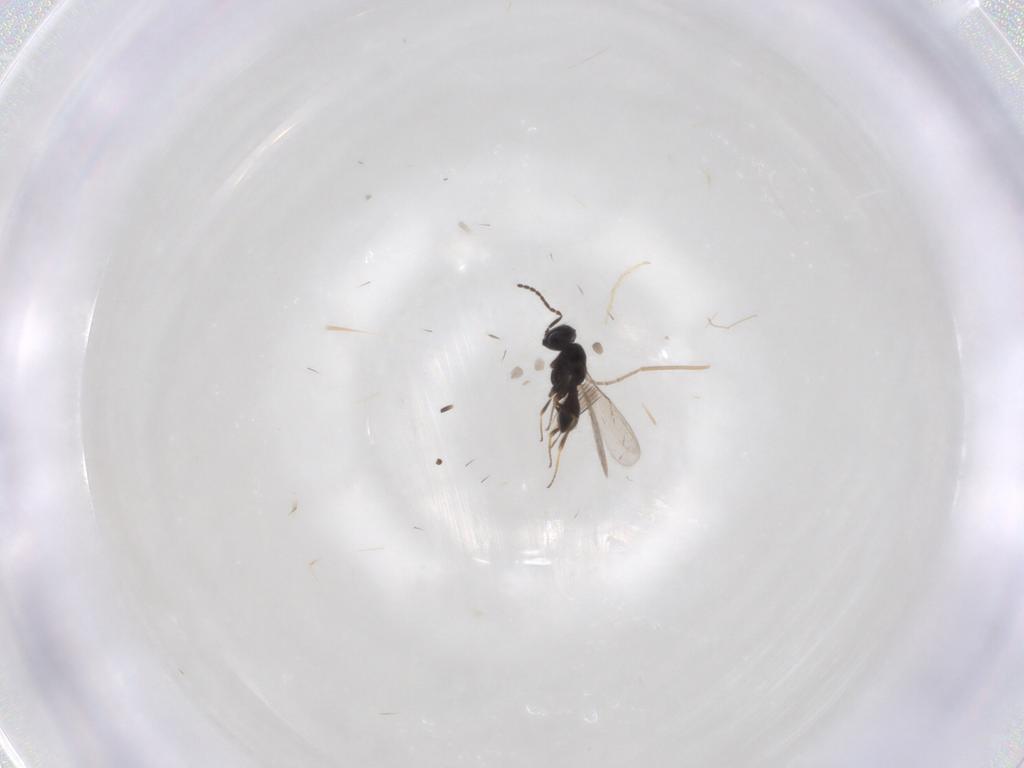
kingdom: Animalia
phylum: Arthropoda
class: Insecta
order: Hymenoptera
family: Scelionidae
